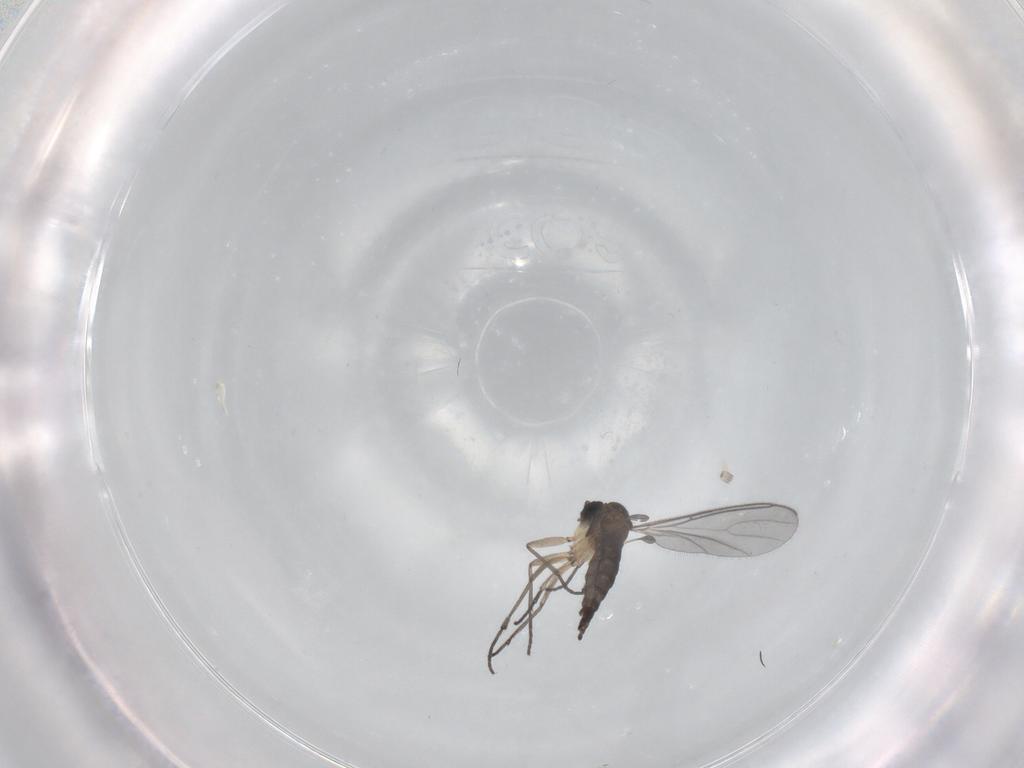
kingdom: Animalia
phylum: Arthropoda
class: Insecta
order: Diptera
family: Sciaridae
